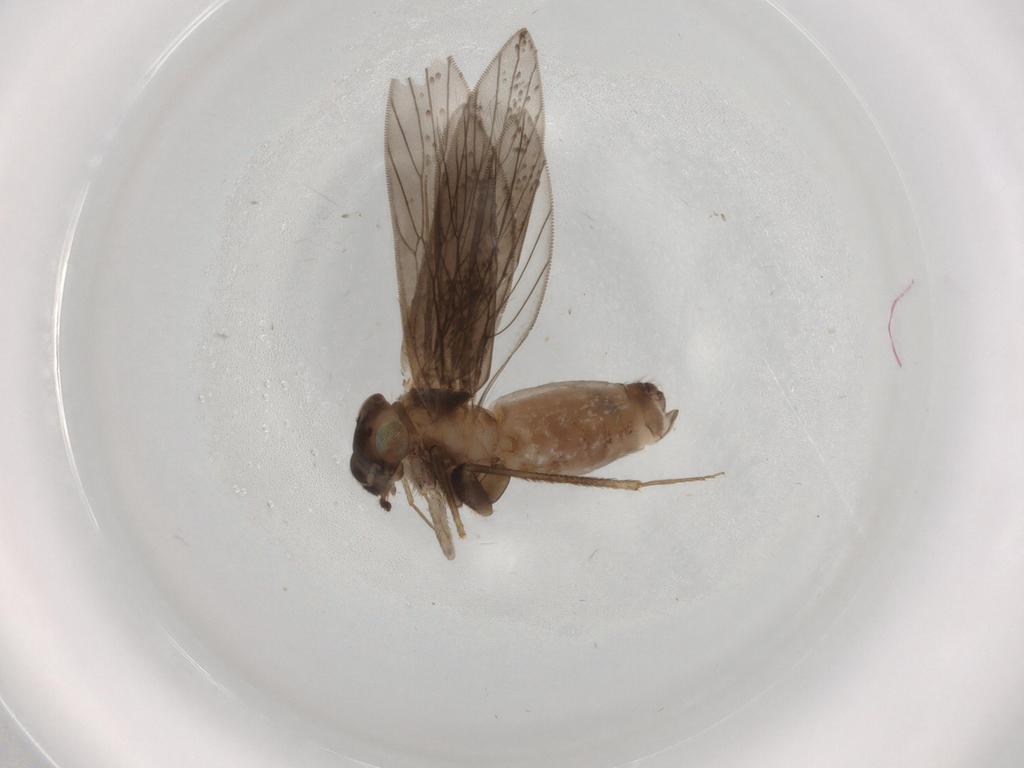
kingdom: Animalia
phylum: Arthropoda
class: Insecta
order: Psocodea
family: Lepidopsocidae
